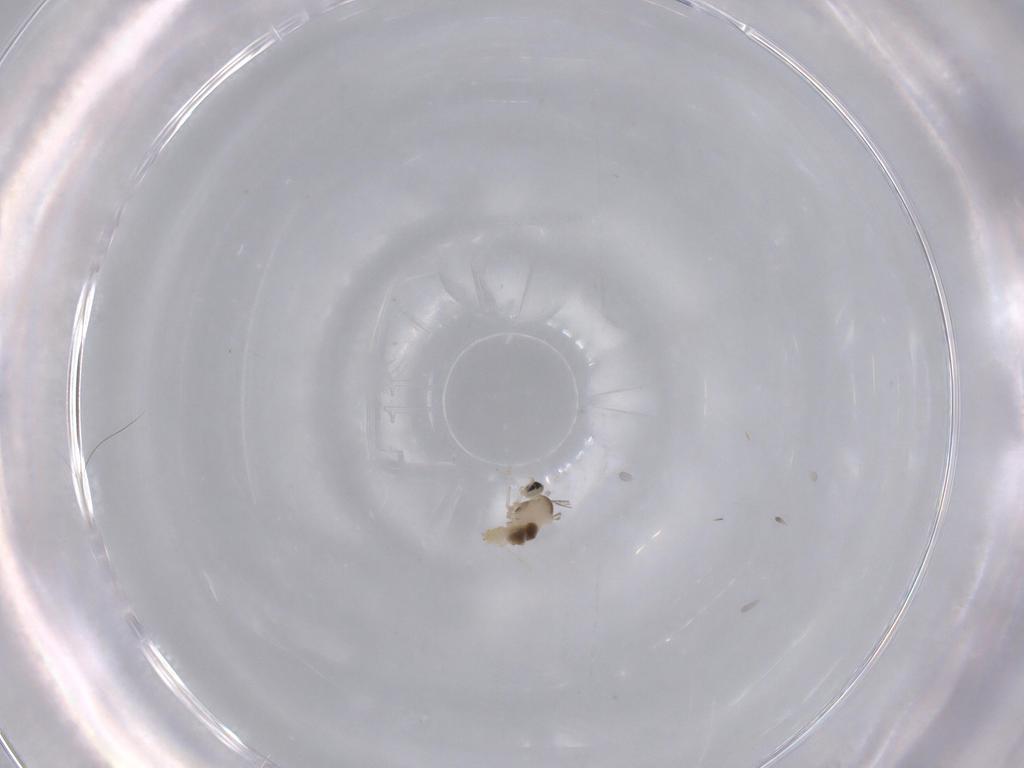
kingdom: Animalia
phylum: Arthropoda
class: Insecta
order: Diptera
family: Cecidomyiidae
